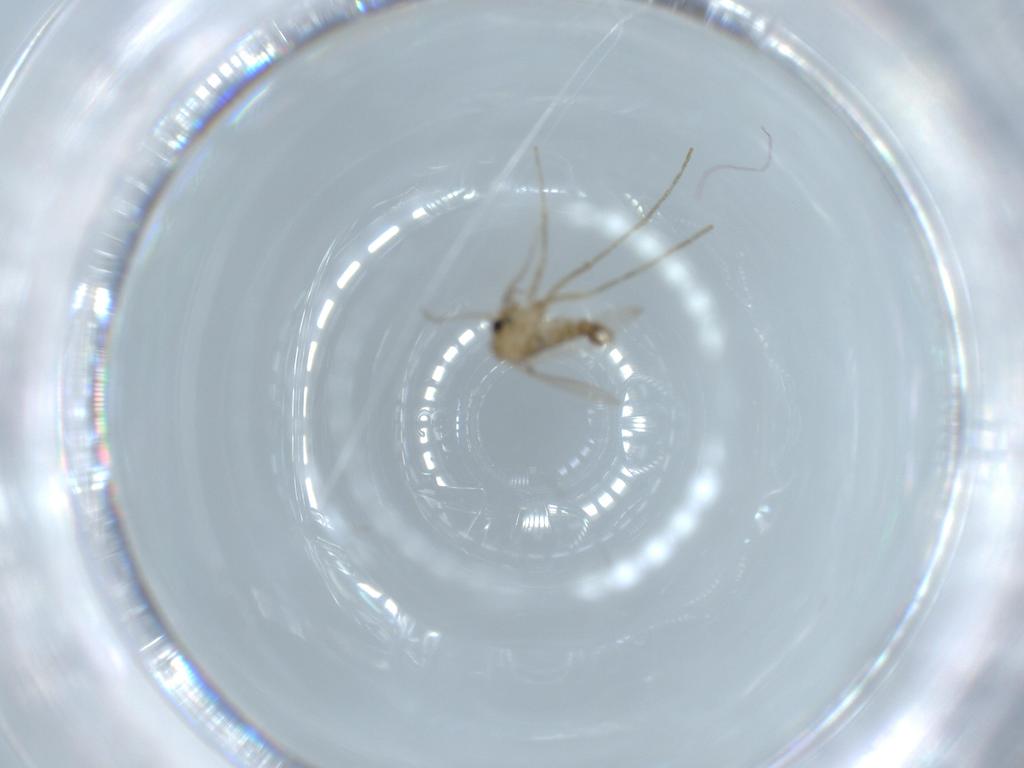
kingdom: Animalia
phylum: Arthropoda
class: Insecta
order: Diptera
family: Psychodidae
